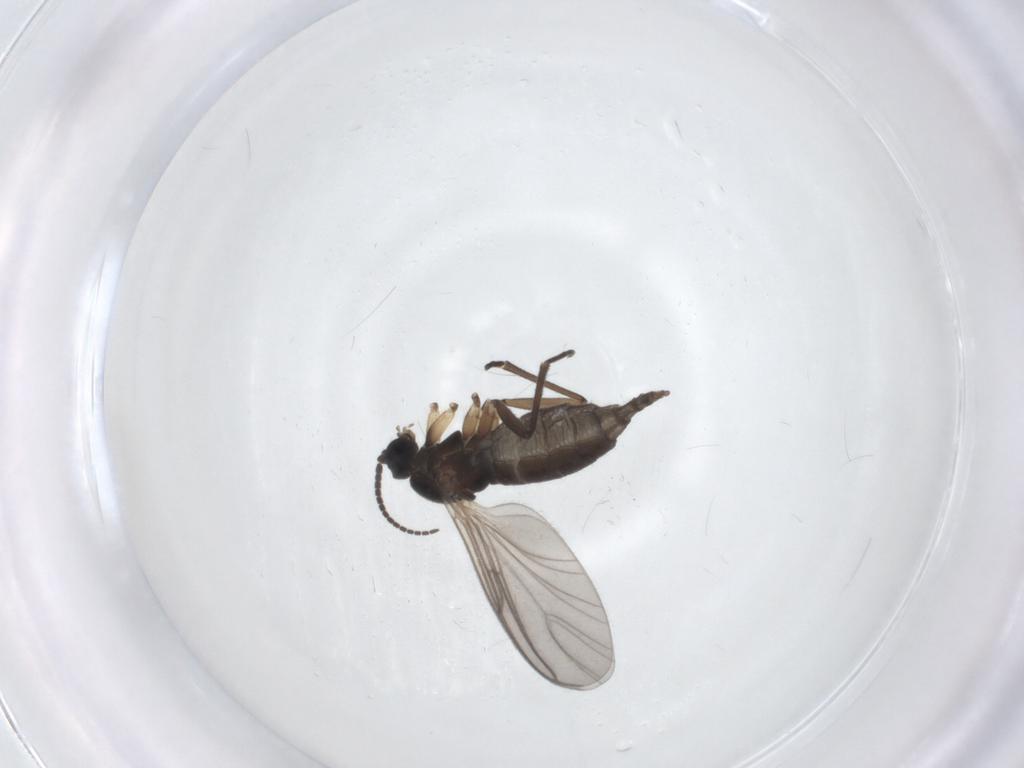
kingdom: Animalia
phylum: Arthropoda
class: Insecta
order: Diptera
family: Sciaridae
